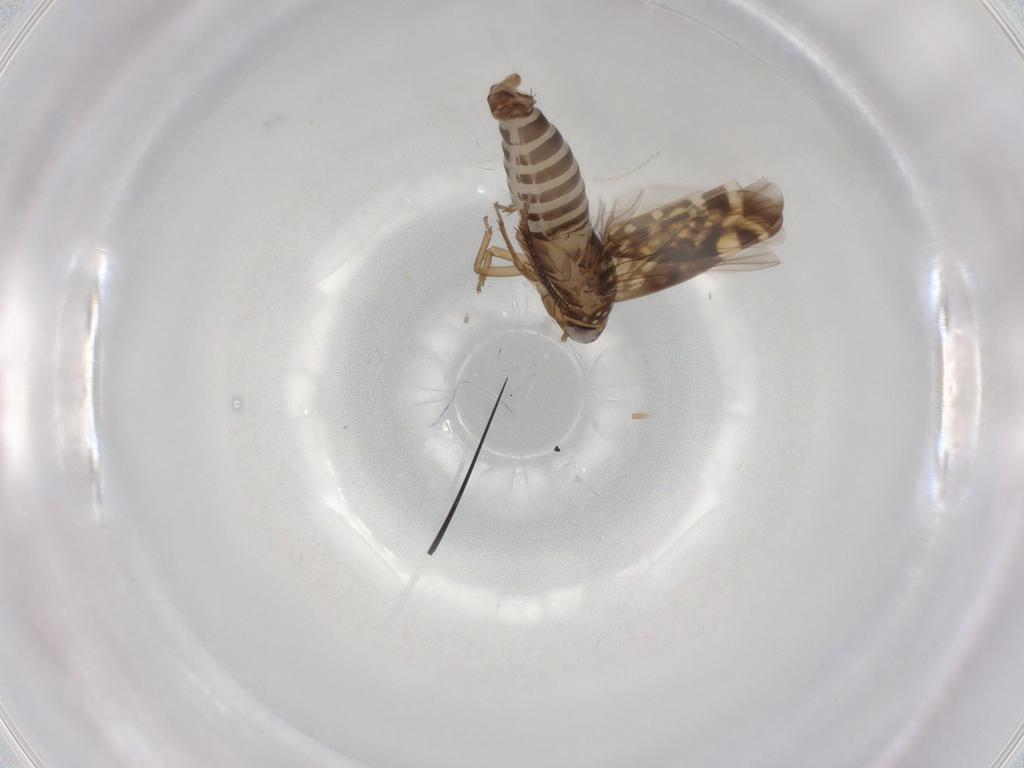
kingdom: Animalia
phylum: Arthropoda
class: Insecta
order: Hemiptera
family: Cicadellidae
